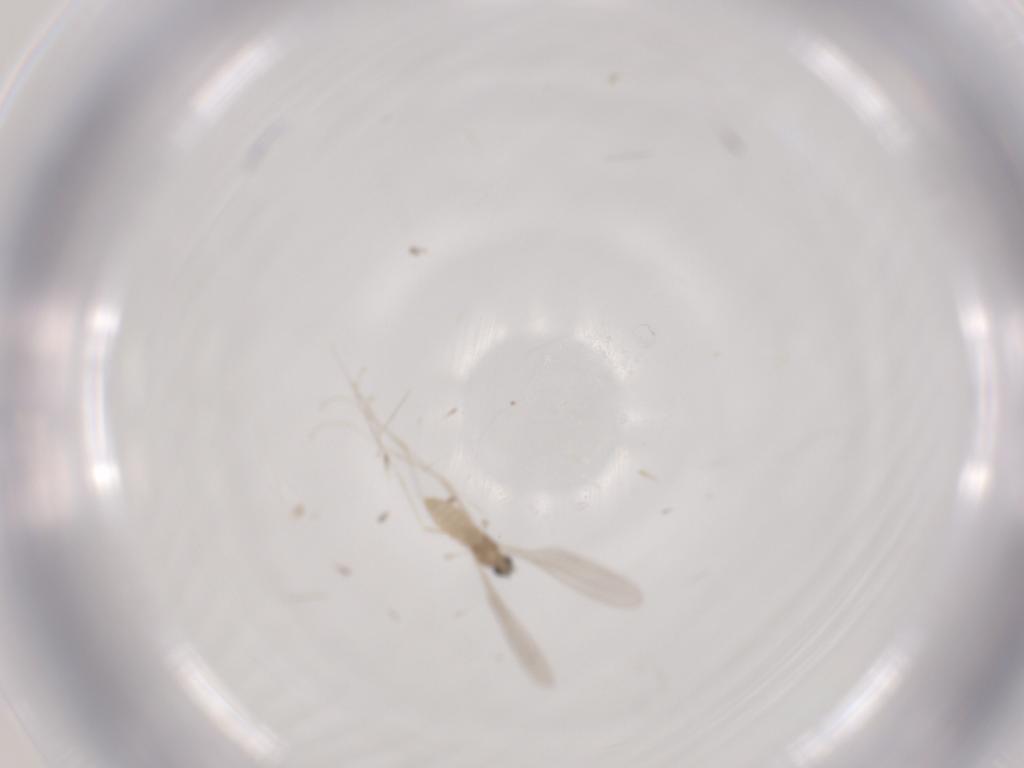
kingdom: Animalia
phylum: Arthropoda
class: Insecta
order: Diptera
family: Cecidomyiidae
